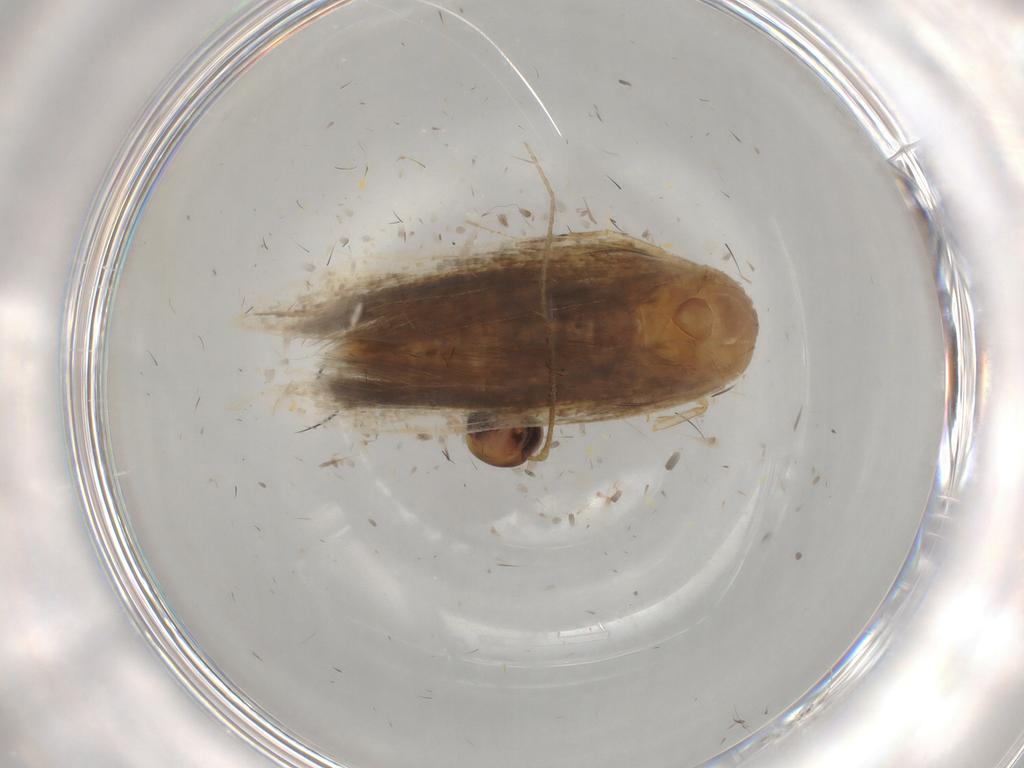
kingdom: Animalia
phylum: Arthropoda
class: Insecta
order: Lepidoptera
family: Gelechiidae
